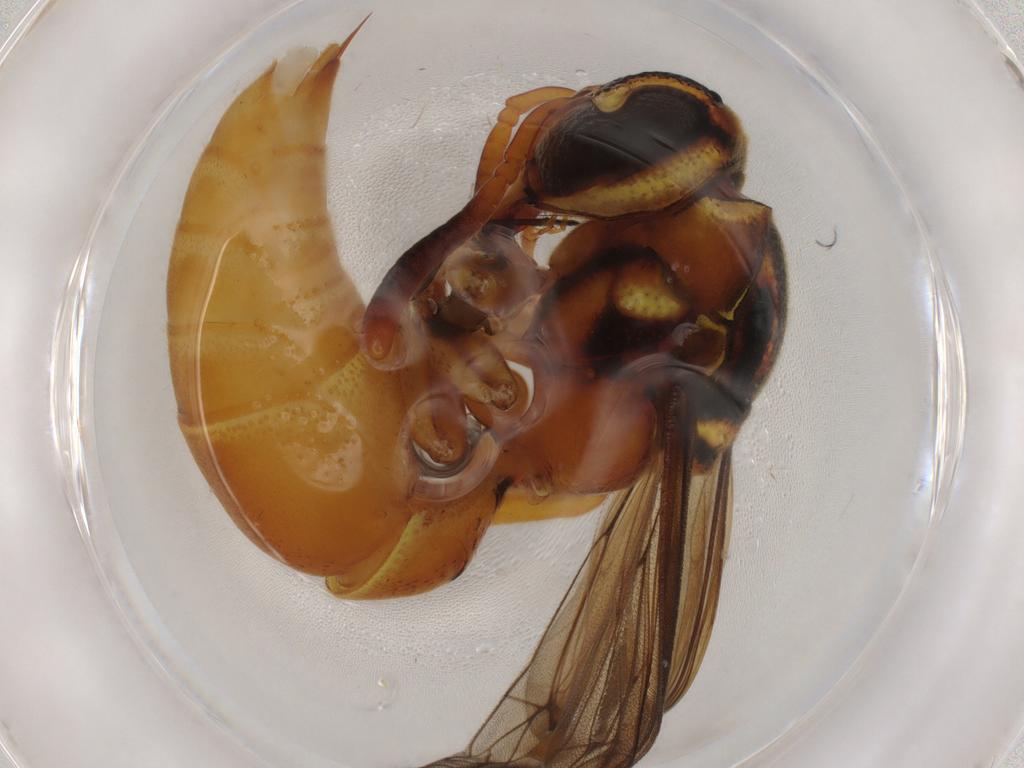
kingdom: Animalia
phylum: Arthropoda
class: Insecta
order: Hymenoptera
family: Vespidae
